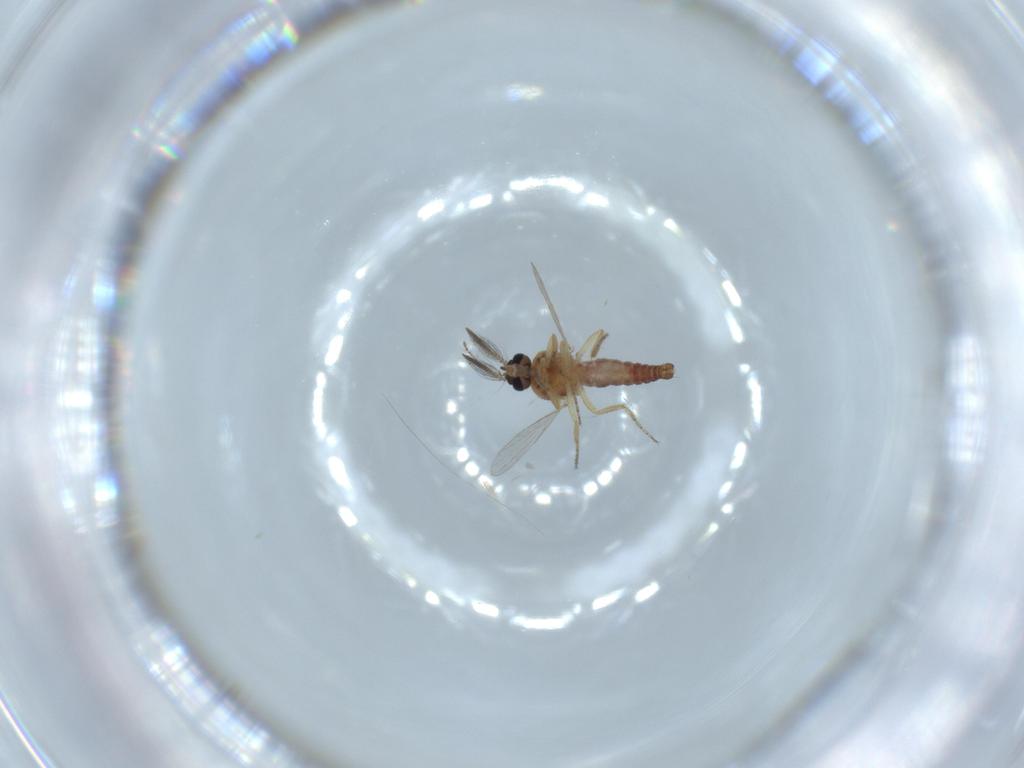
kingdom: Animalia
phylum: Arthropoda
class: Insecta
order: Diptera
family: Ceratopogonidae
